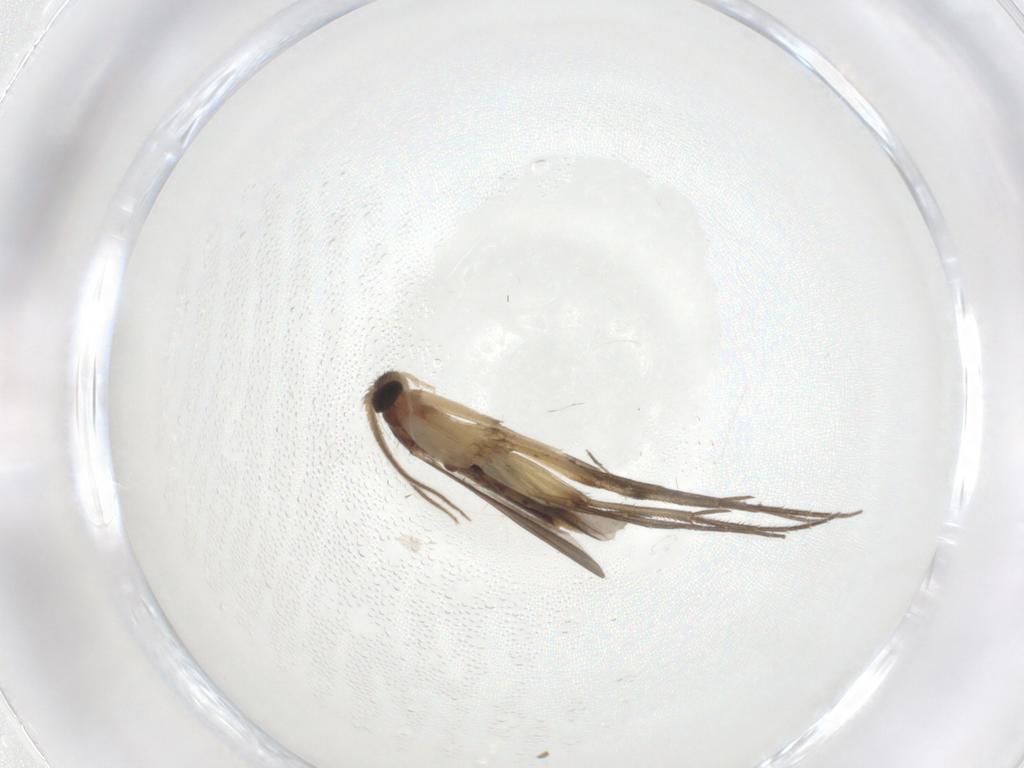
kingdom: Animalia
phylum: Arthropoda
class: Insecta
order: Diptera
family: Mycetophilidae
